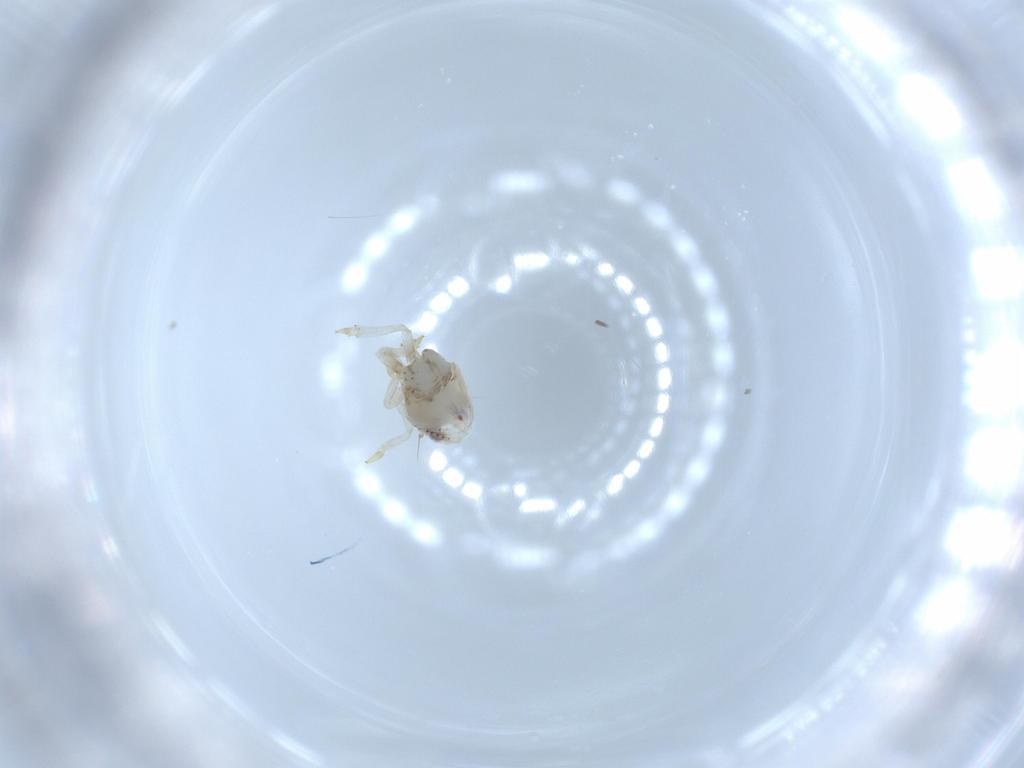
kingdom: Animalia
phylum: Arthropoda
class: Insecta
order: Hemiptera
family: Acanaloniidae
